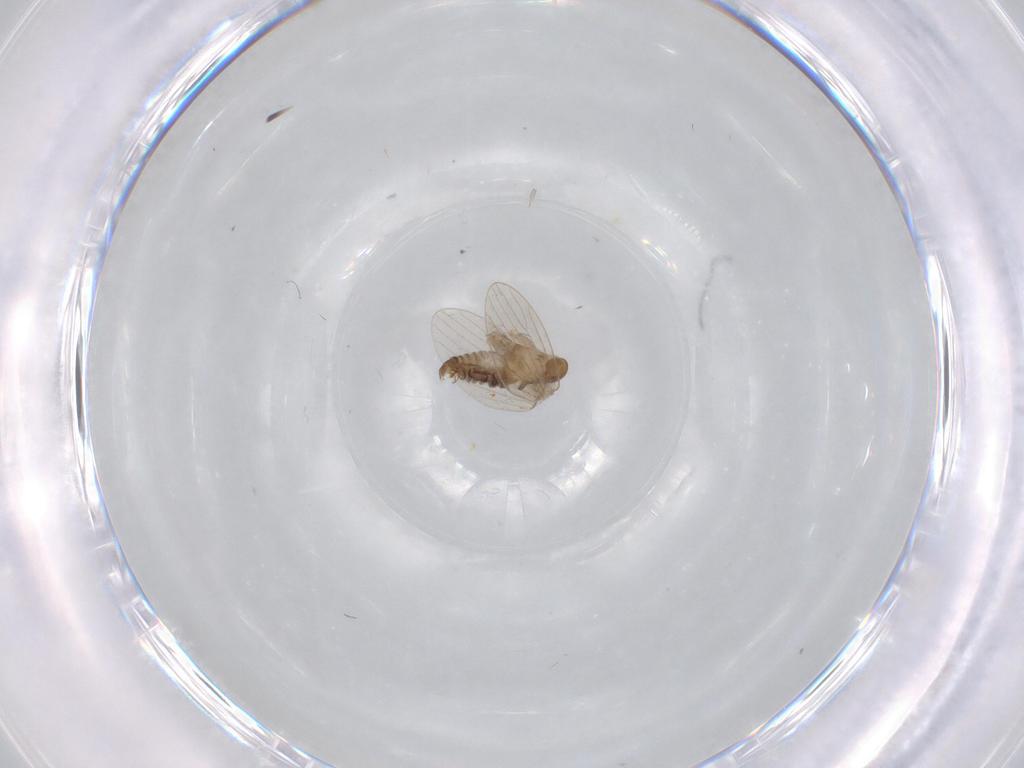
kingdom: Animalia
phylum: Arthropoda
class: Insecta
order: Diptera
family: Psychodidae
